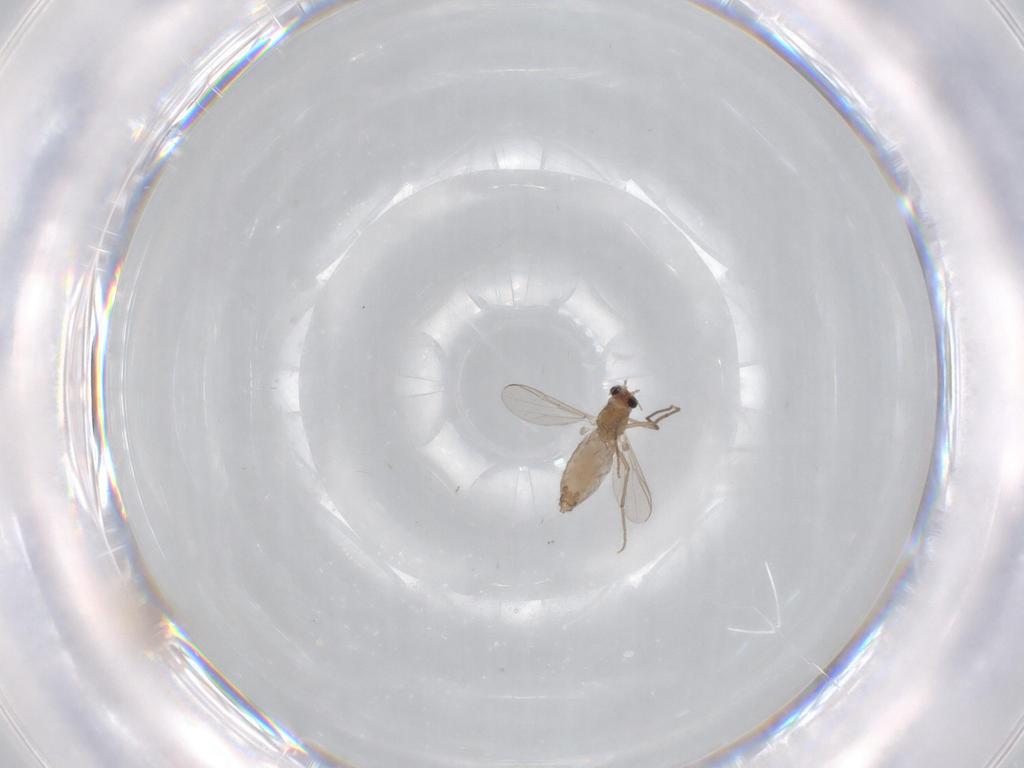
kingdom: Animalia
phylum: Arthropoda
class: Insecta
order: Diptera
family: Chironomidae
